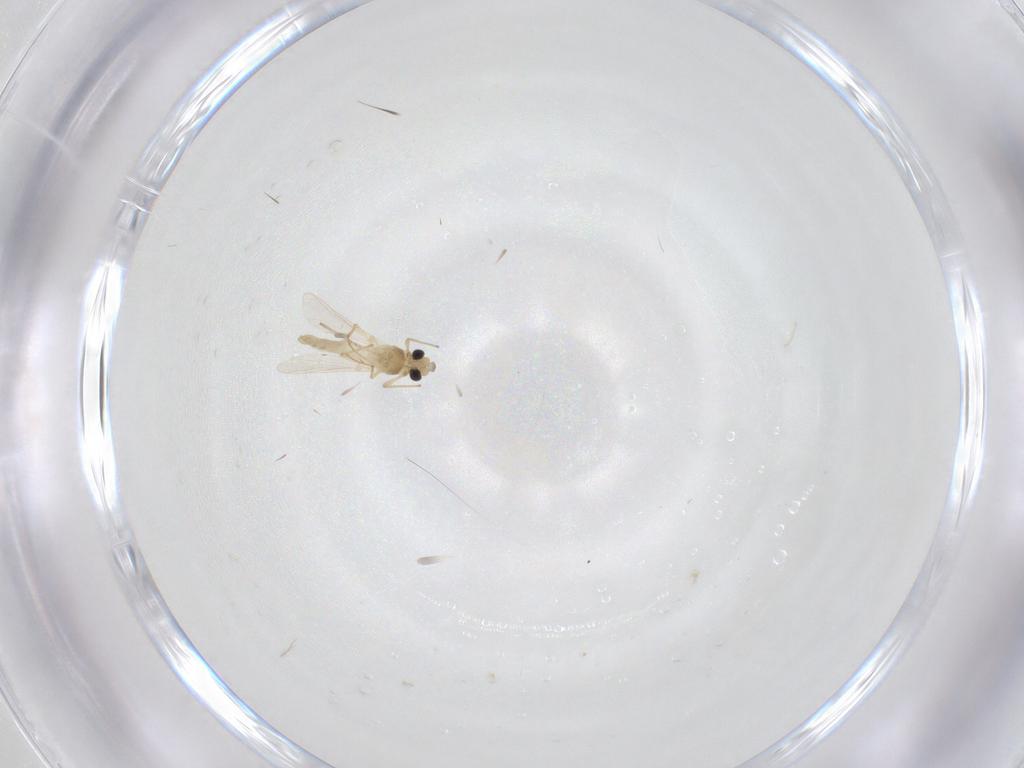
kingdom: Animalia
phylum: Arthropoda
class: Insecta
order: Diptera
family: Chironomidae
